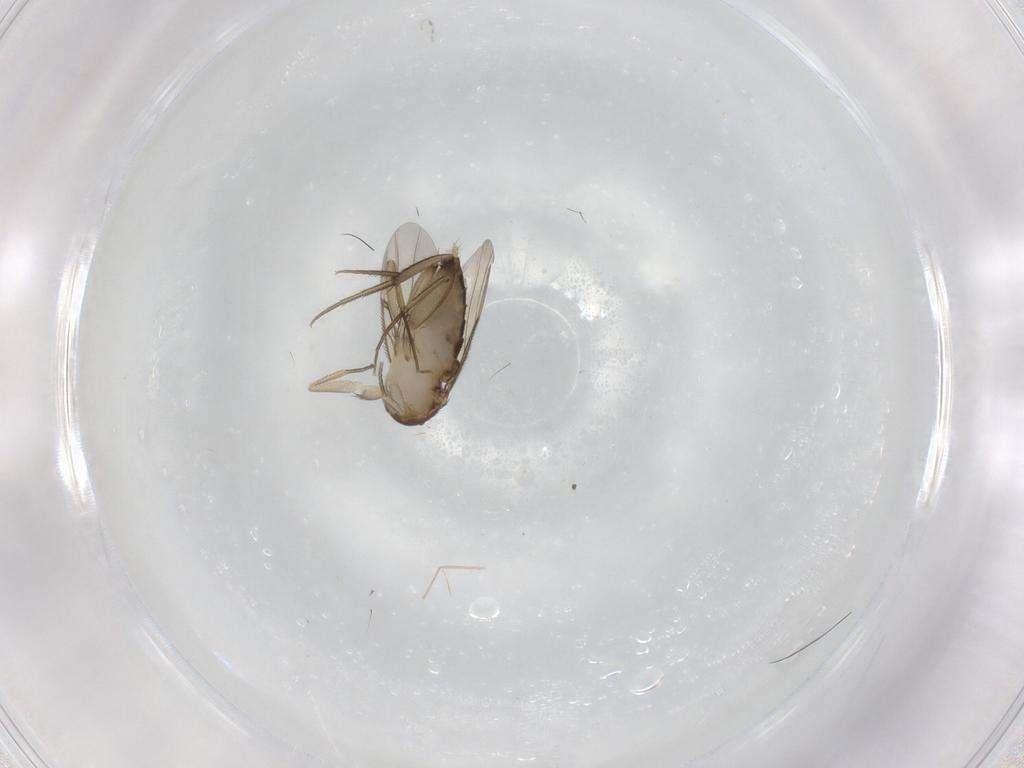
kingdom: Animalia
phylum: Arthropoda
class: Insecta
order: Diptera
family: Phoridae
